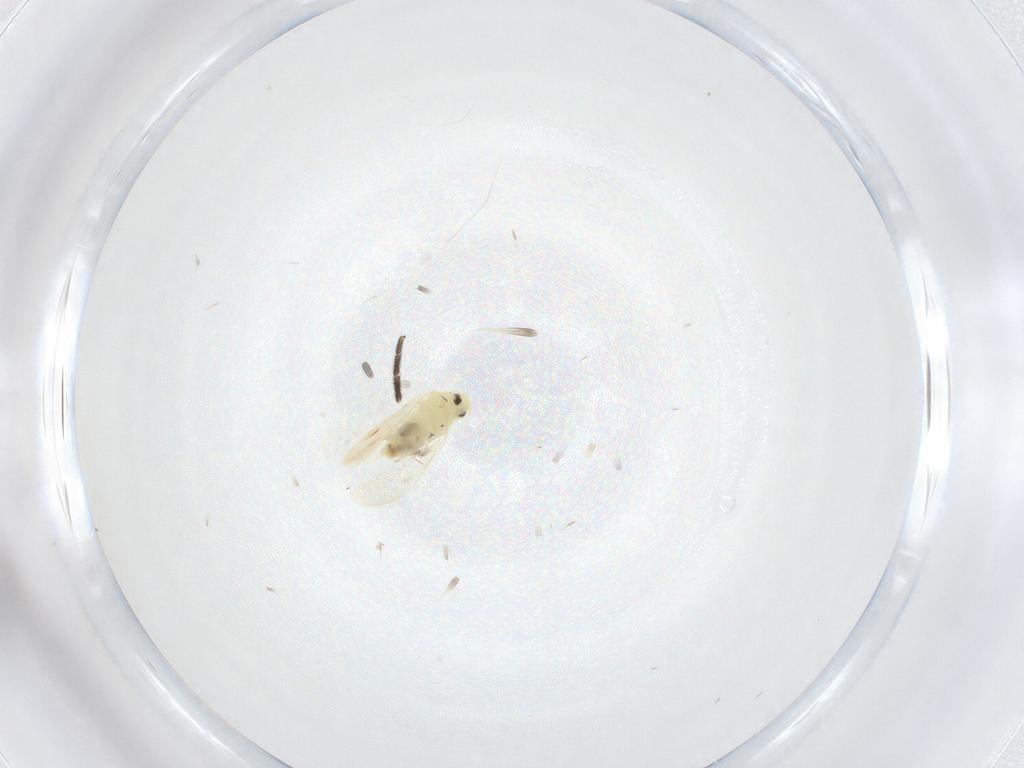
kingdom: Animalia
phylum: Arthropoda
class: Insecta
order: Hemiptera
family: Aleyrodidae
